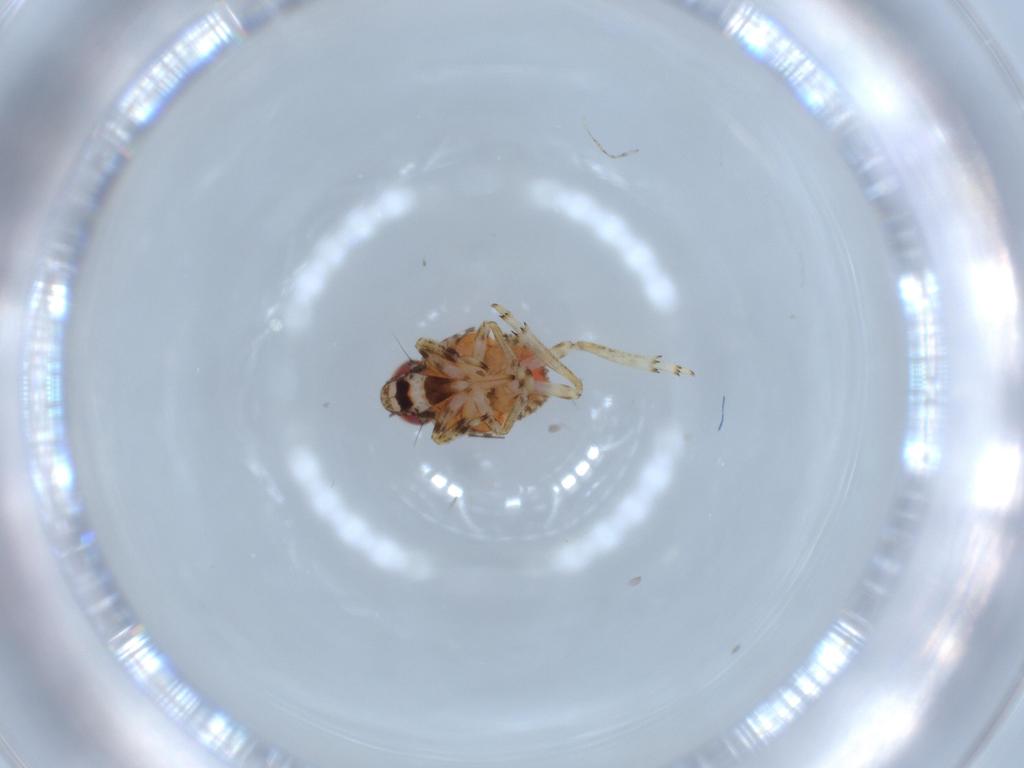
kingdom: Animalia
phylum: Arthropoda
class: Insecta
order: Hemiptera
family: Issidae
